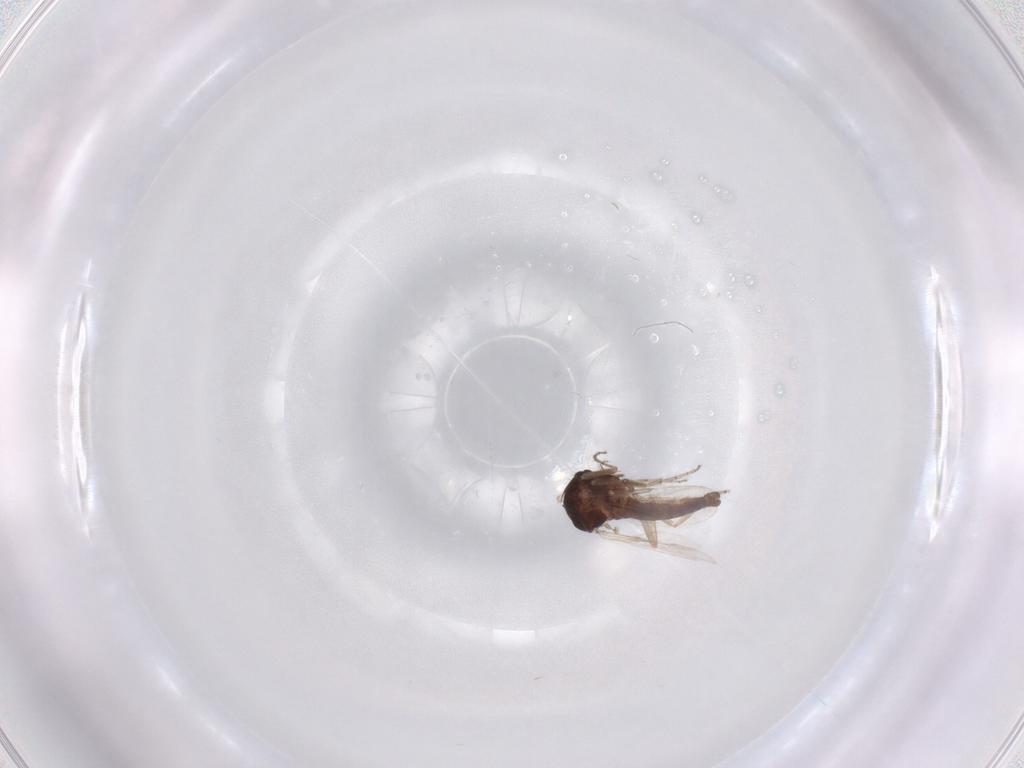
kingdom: Animalia
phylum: Arthropoda
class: Insecta
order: Diptera
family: Ceratopogonidae
